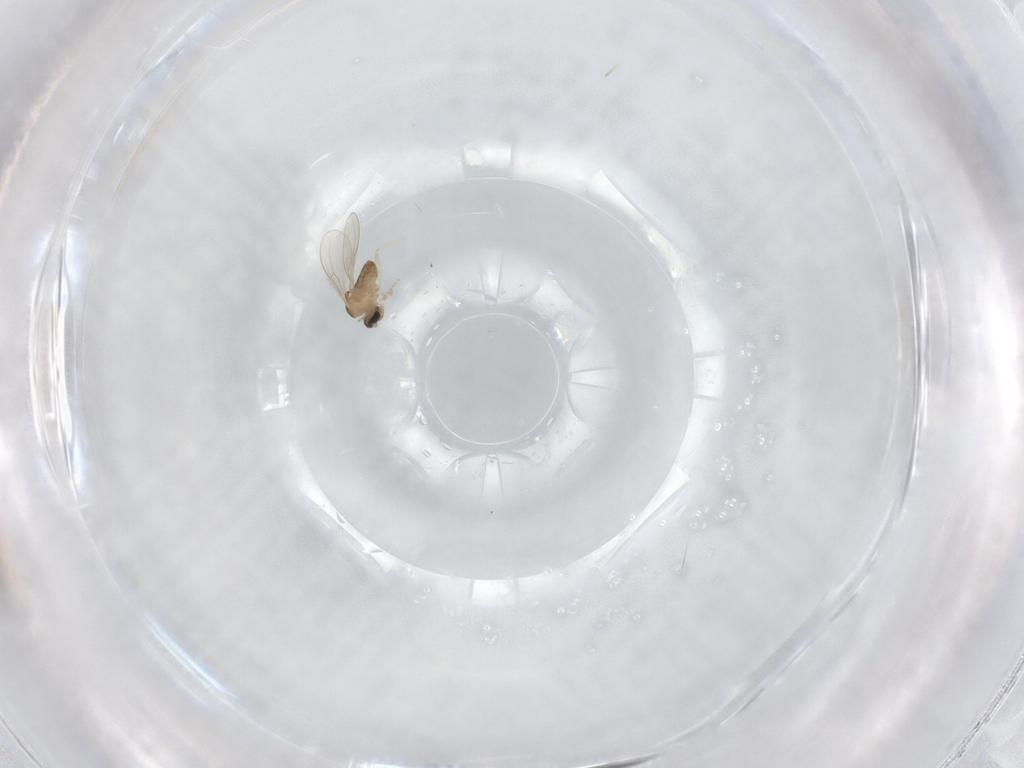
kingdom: Animalia
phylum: Arthropoda
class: Insecta
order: Diptera
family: Cecidomyiidae
